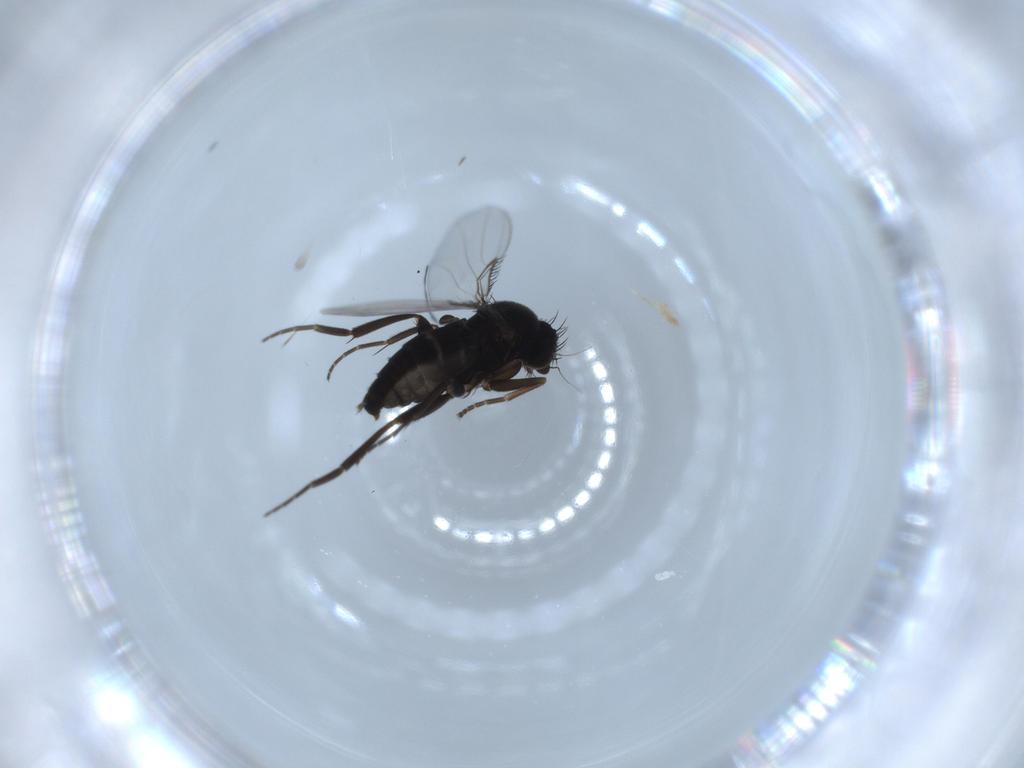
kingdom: Animalia
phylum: Arthropoda
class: Insecta
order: Diptera
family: Phoridae
